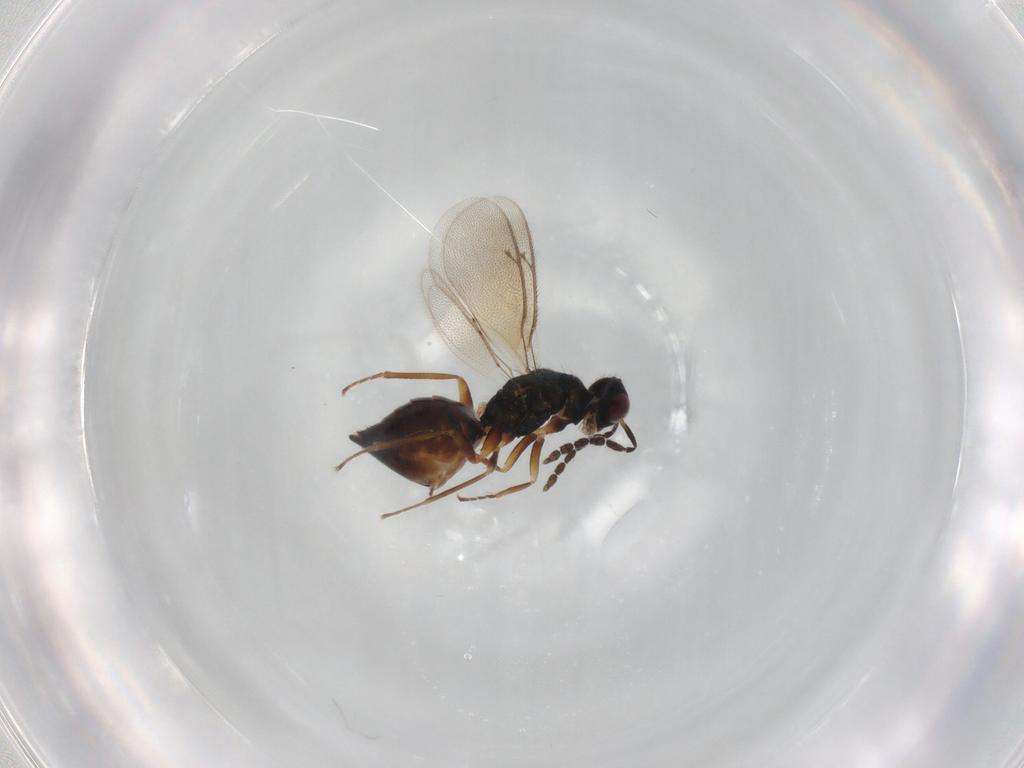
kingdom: Animalia
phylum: Arthropoda
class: Insecta
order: Hymenoptera
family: Eulophidae
